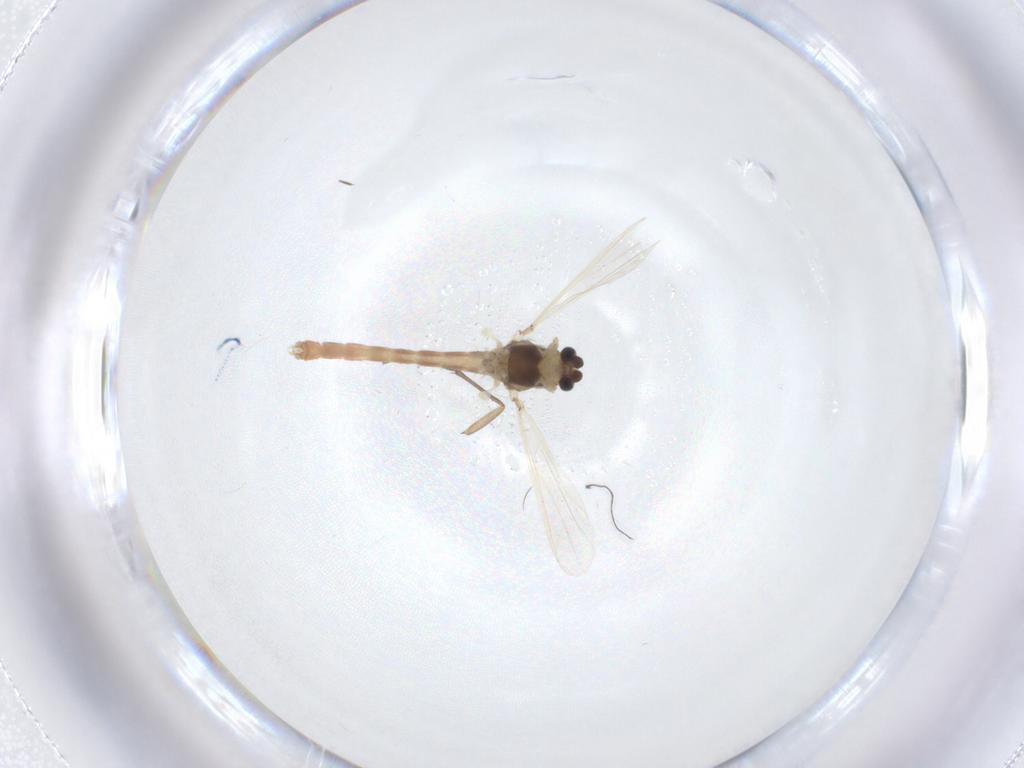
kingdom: Animalia
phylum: Arthropoda
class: Insecta
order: Diptera
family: Chironomidae
